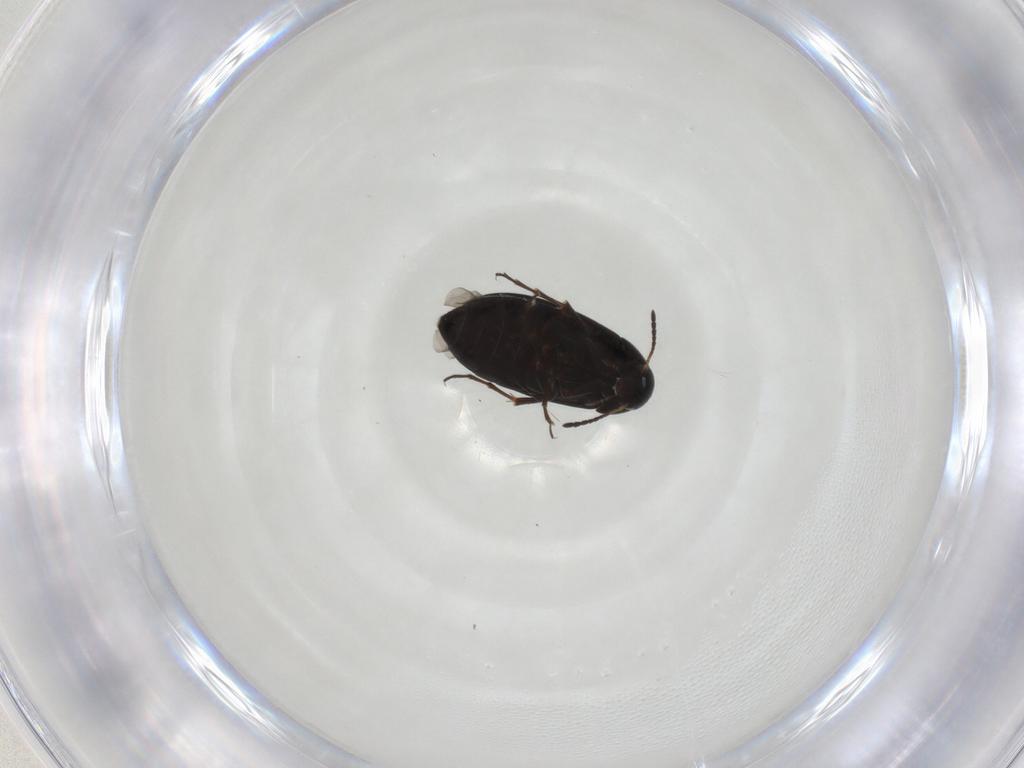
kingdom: Animalia
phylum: Arthropoda
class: Insecta
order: Coleoptera
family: Scraptiidae
